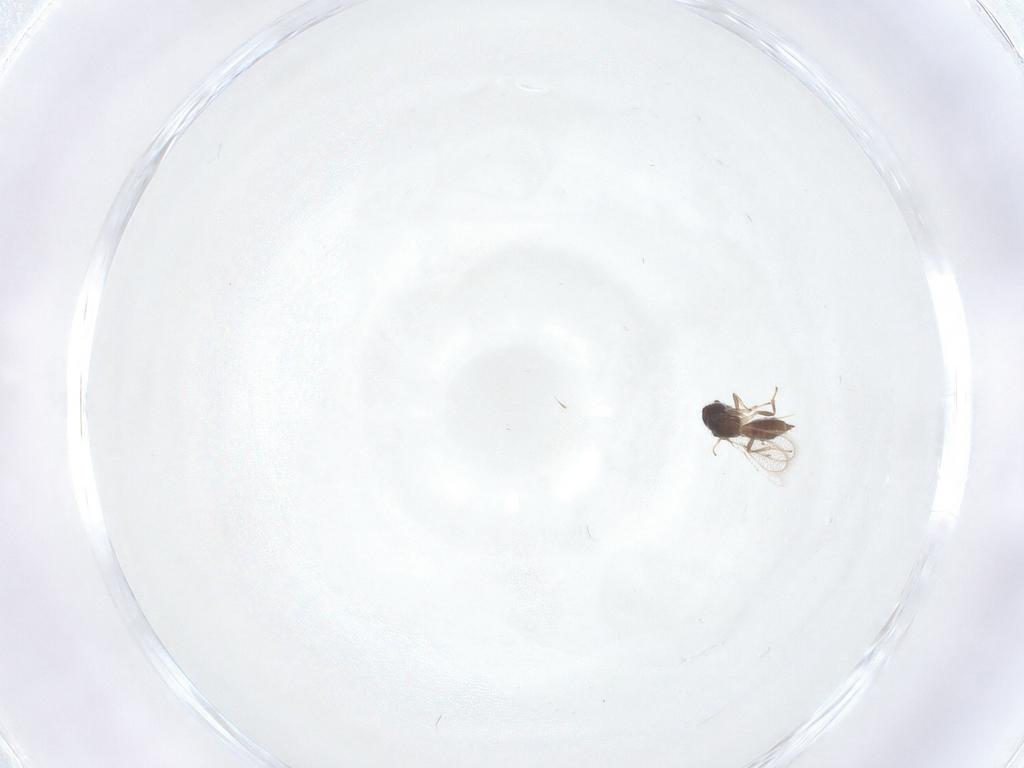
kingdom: Animalia
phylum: Arthropoda
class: Insecta
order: Hymenoptera
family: Pirenidae
